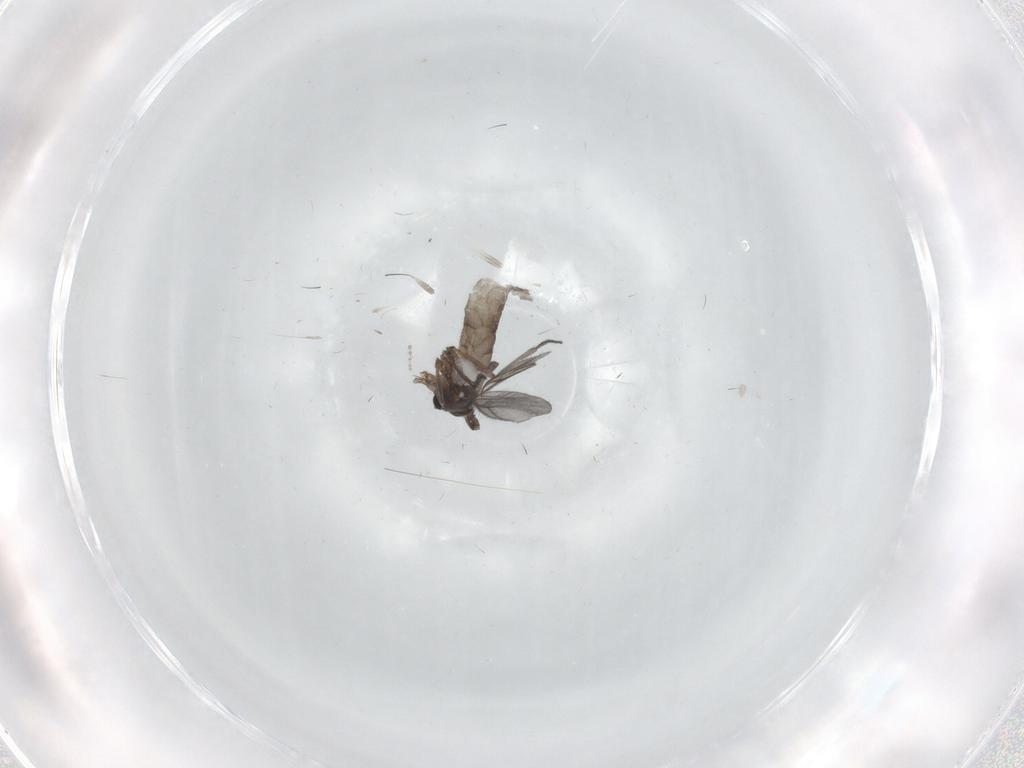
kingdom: Animalia
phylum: Arthropoda
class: Insecta
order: Diptera
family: Sciaridae
